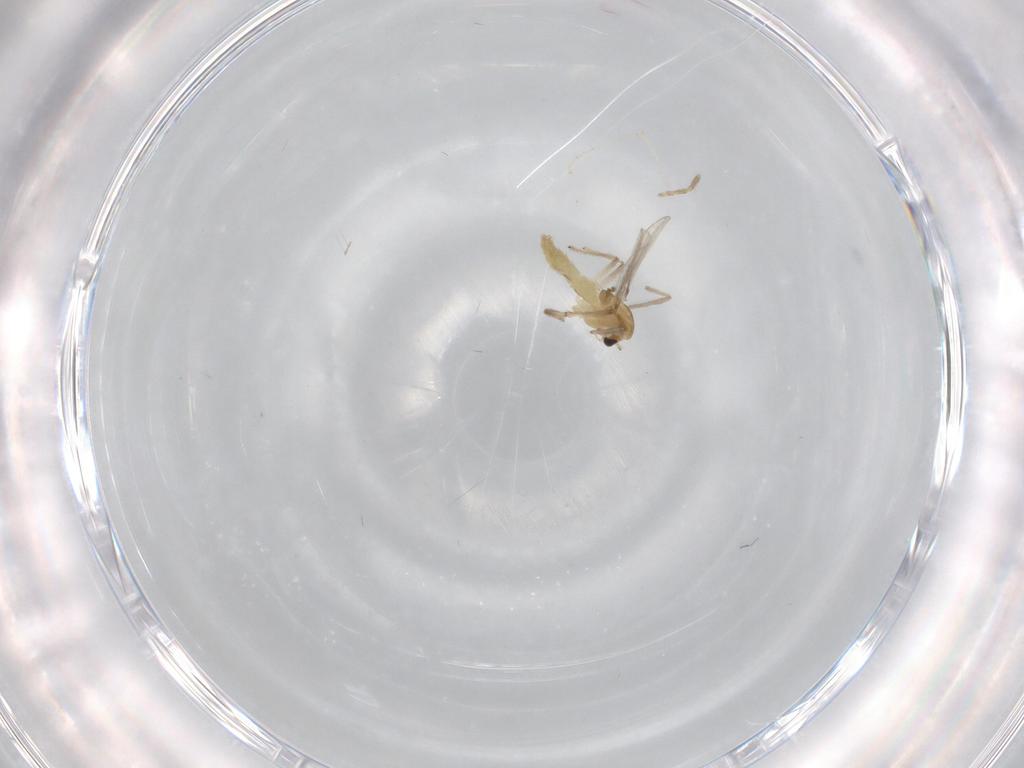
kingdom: Animalia
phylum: Arthropoda
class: Insecta
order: Diptera
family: Chironomidae
